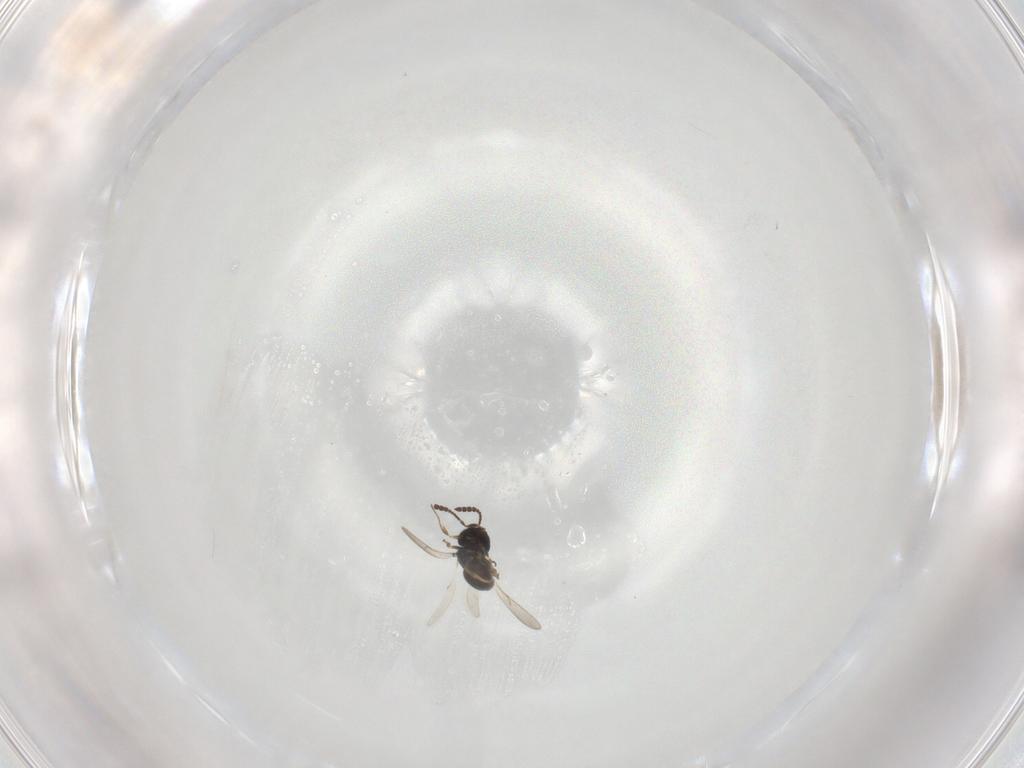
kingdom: Animalia
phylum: Arthropoda
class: Insecta
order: Hymenoptera
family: Scelionidae
